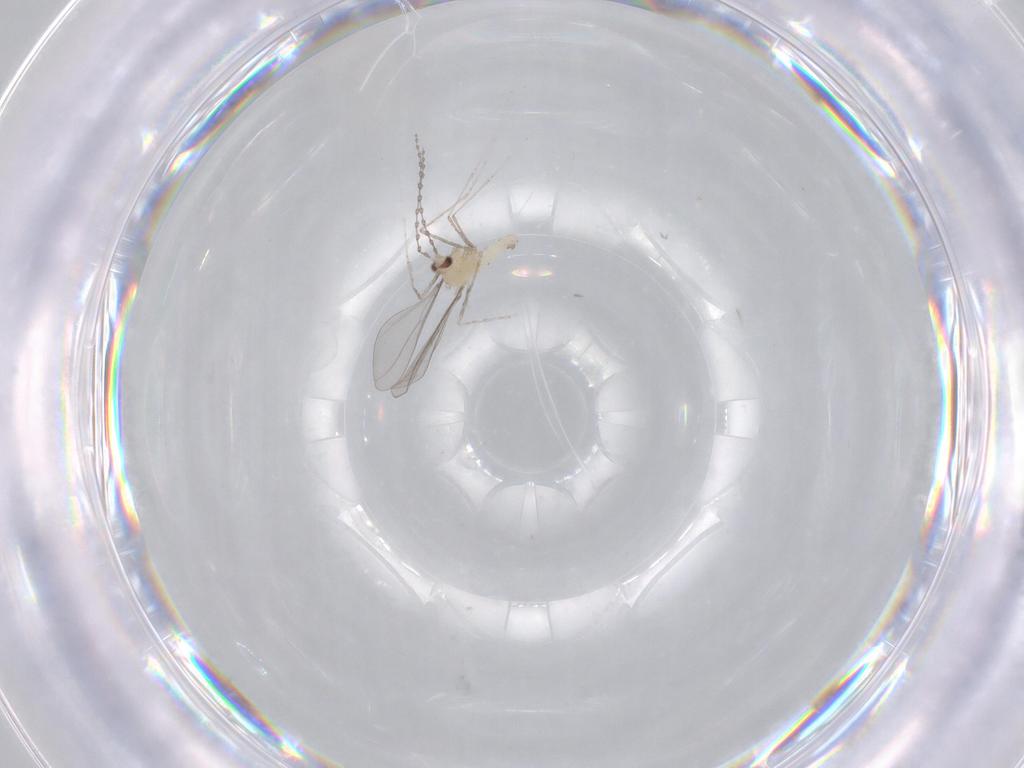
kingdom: Animalia
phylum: Arthropoda
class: Insecta
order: Diptera
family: Cecidomyiidae
